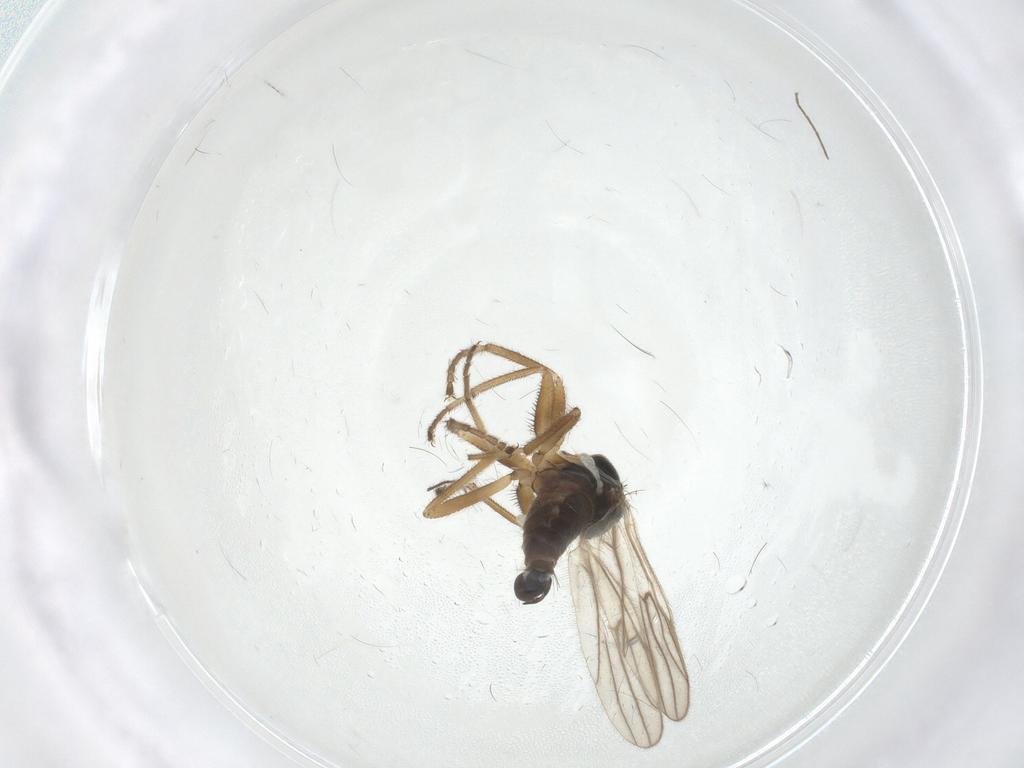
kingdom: Animalia
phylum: Arthropoda
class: Insecta
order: Diptera
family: Hybotidae
